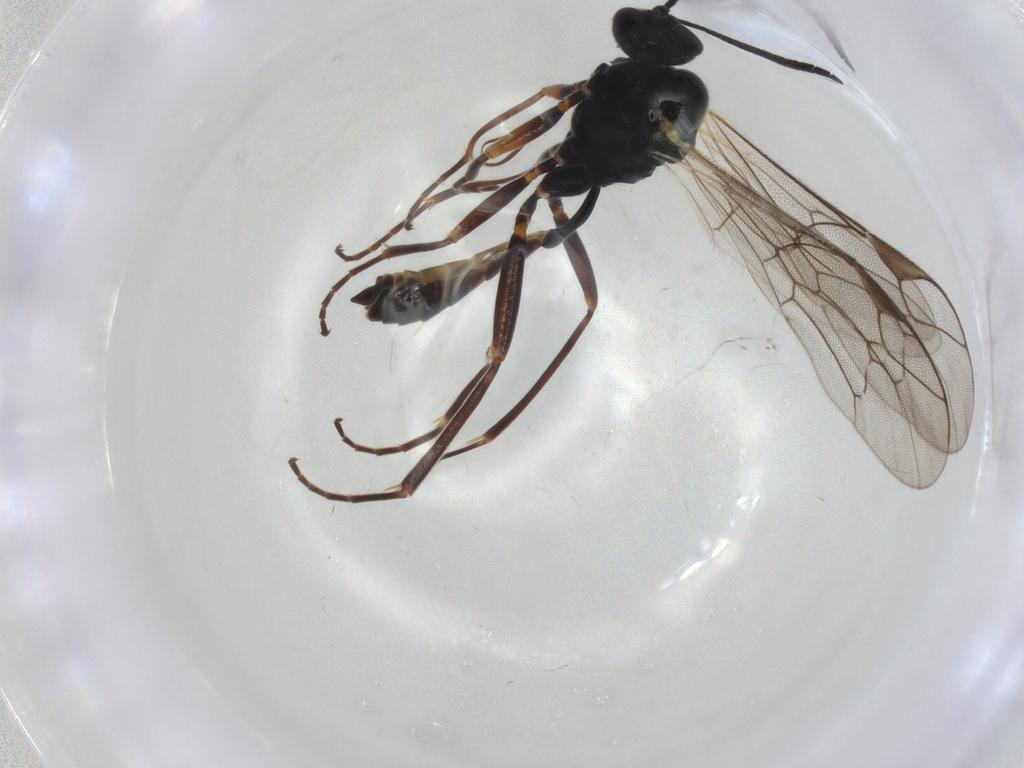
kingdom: Animalia
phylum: Arthropoda
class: Insecta
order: Hymenoptera
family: Ichneumonidae
